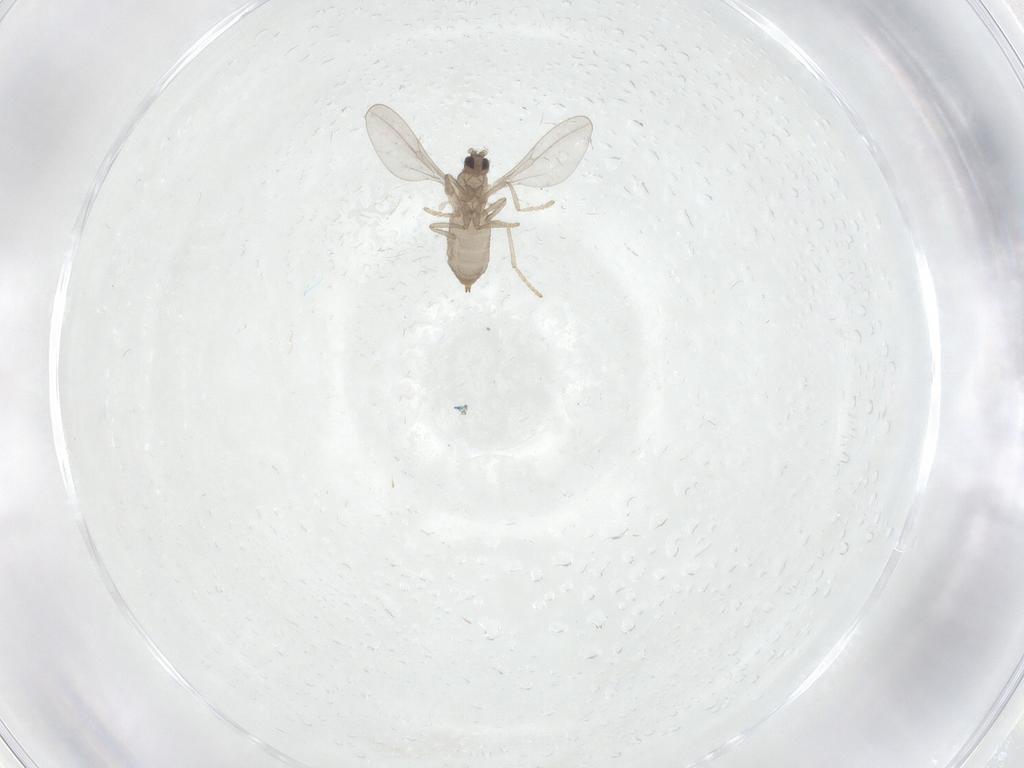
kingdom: Animalia
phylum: Arthropoda
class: Insecta
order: Diptera
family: Cecidomyiidae
